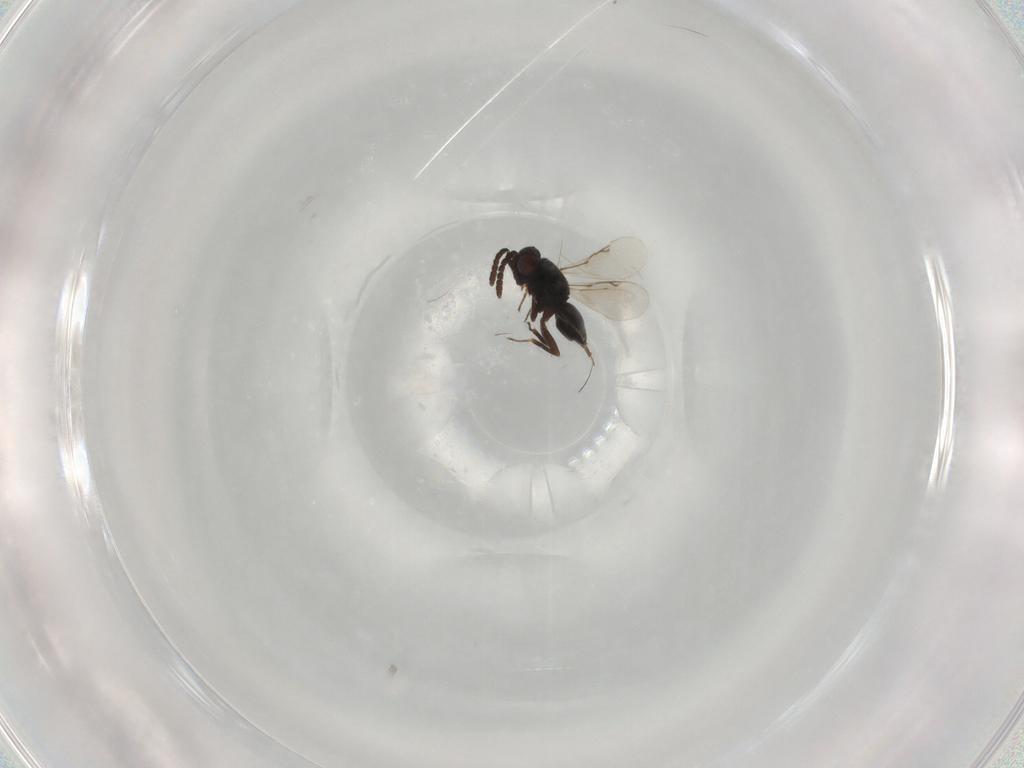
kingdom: Animalia
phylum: Arthropoda
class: Insecta
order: Hymenoptera
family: Eunotidae
